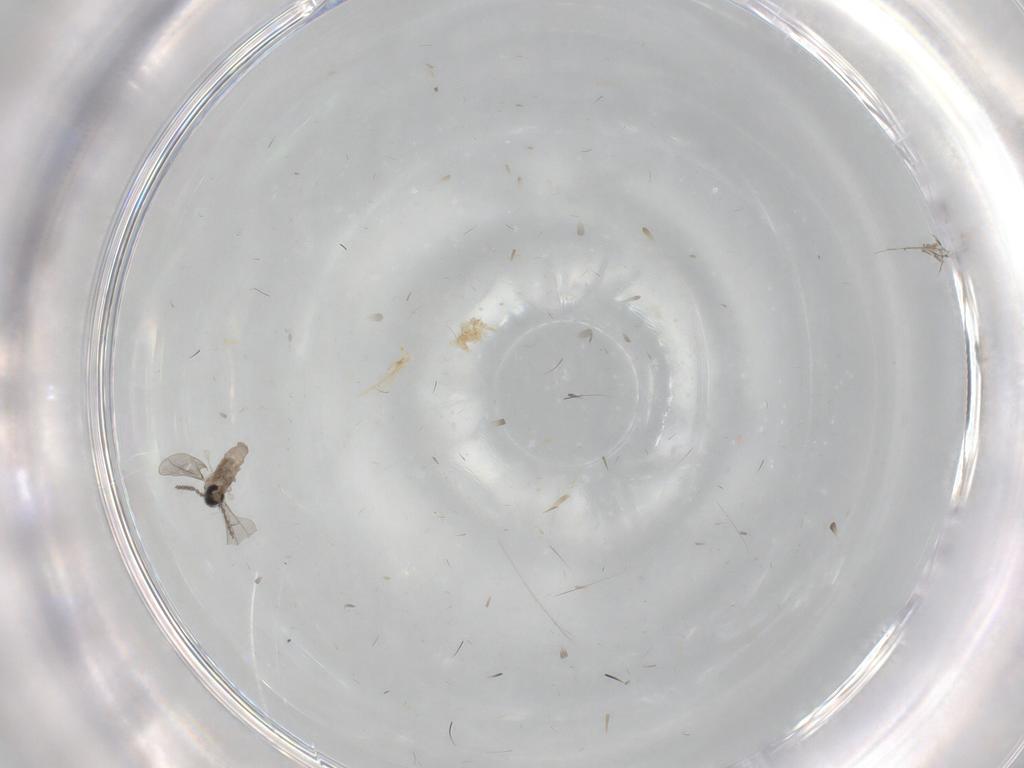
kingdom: Animalia
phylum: Arthropoda
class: Insecta
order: Diptera
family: Cecidomyiidae
